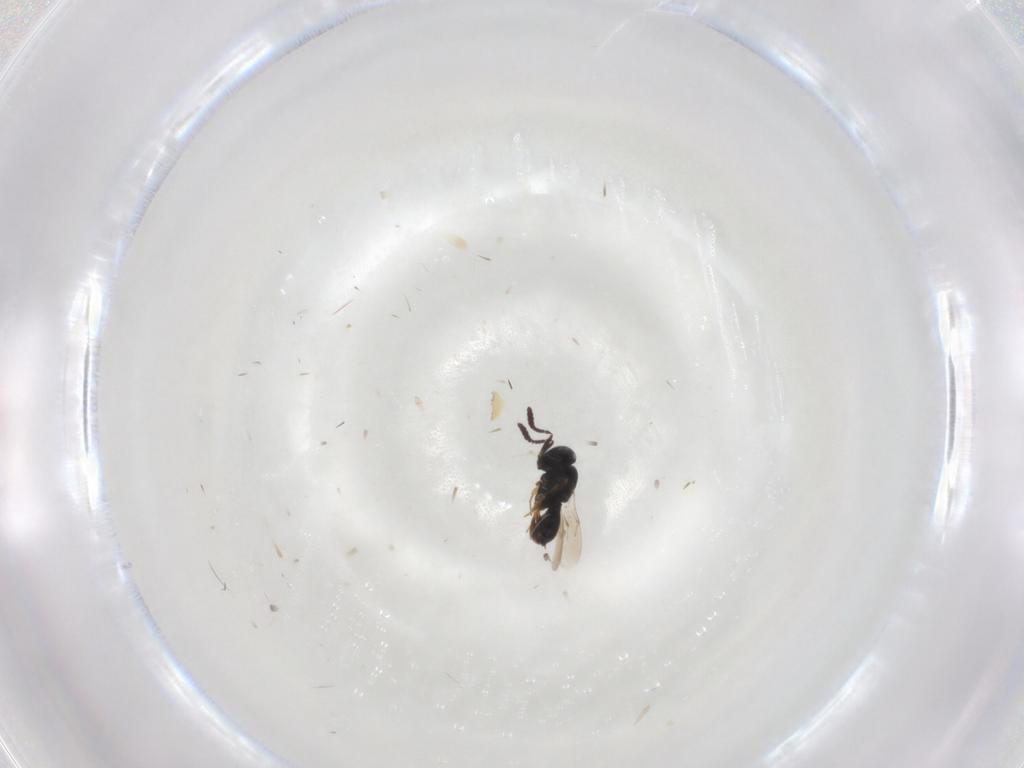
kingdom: Animalia
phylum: Arthropoda
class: Insecta
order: Hymenoptera
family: Scelionidae
